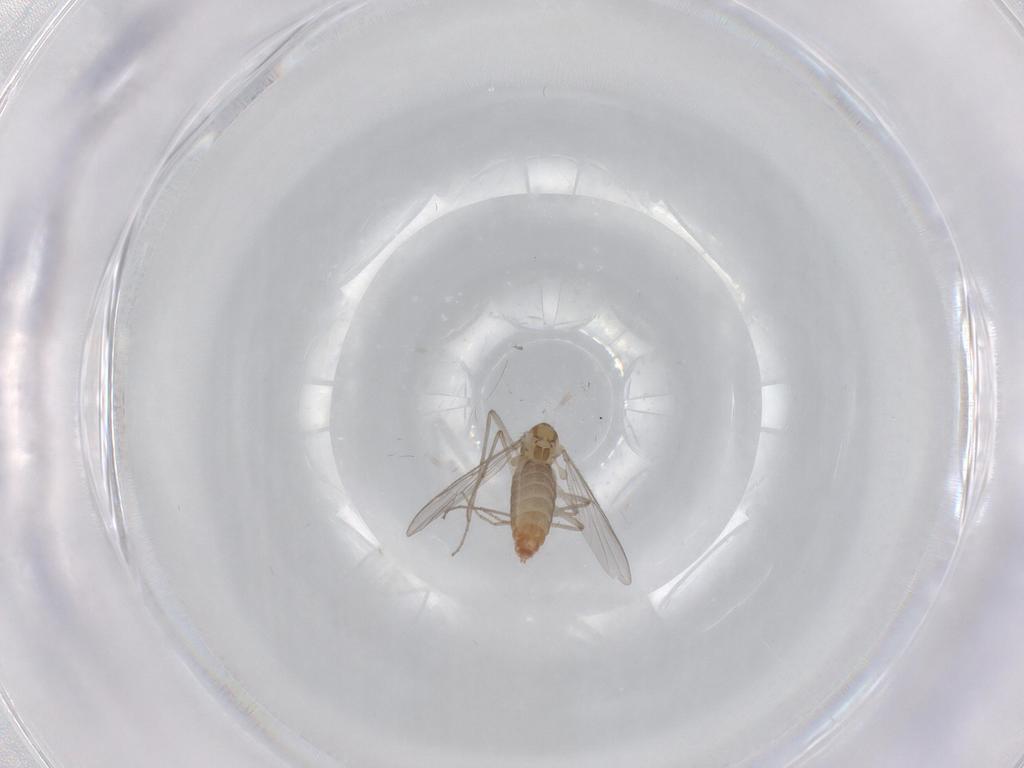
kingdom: Animalia
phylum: Arthropoda
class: Insecta
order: Diptera
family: Chironomidae
